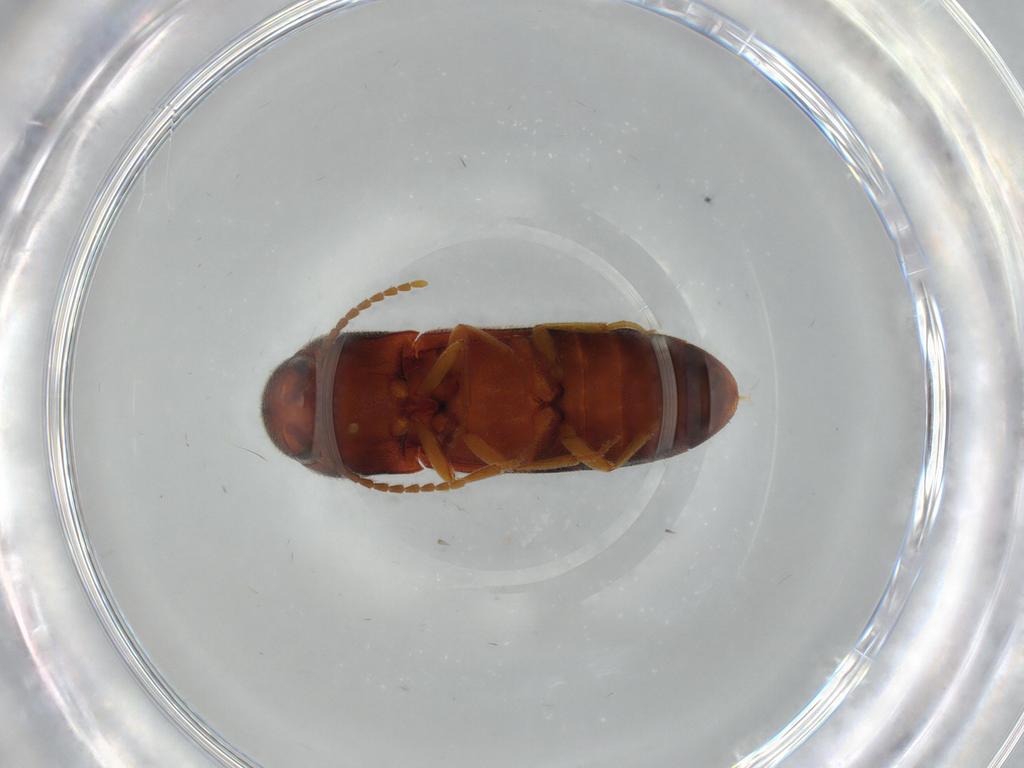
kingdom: Animalia
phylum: Arthropoda
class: Insecta
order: Coleoptera
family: Eucnemidae
